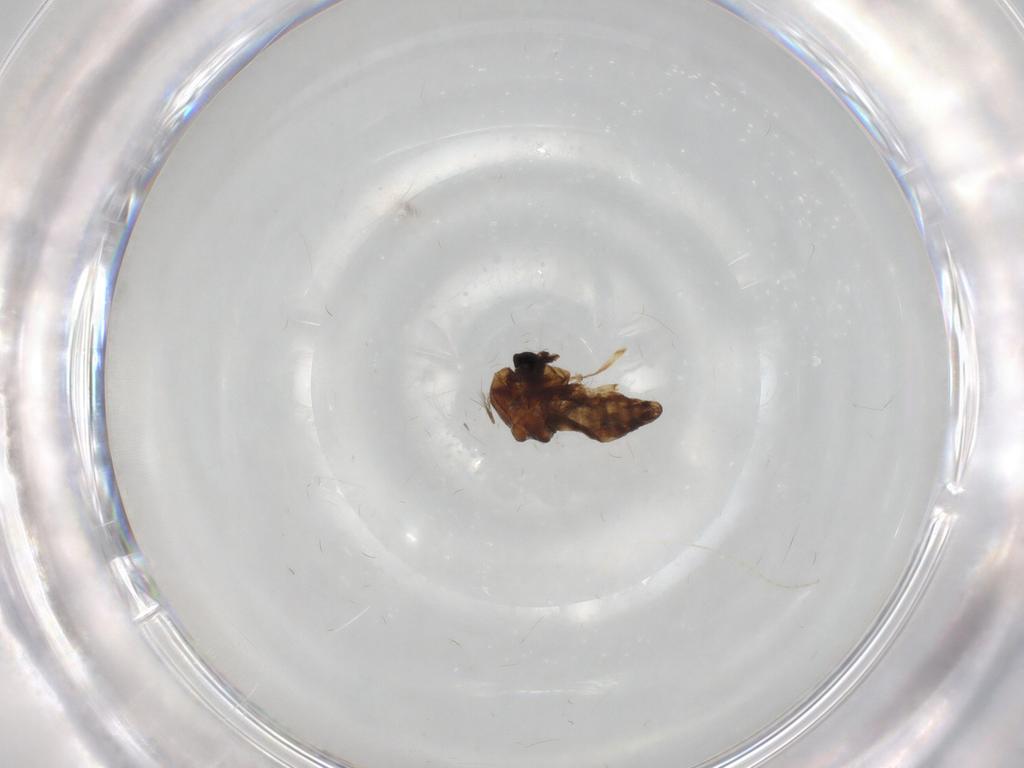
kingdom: Animalia
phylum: Arthropoda
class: Insecta
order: Diptera
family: Chironomidae
